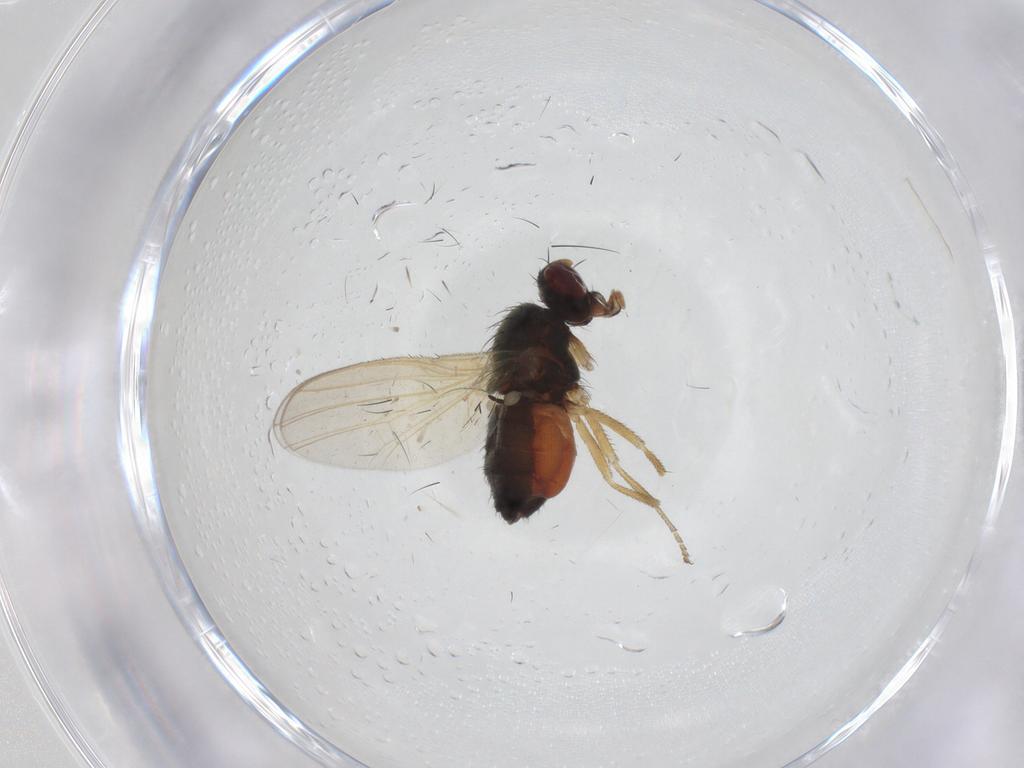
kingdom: Animalia
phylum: Arthropoda
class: Insecta
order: Diptera
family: Heleomyzidae
